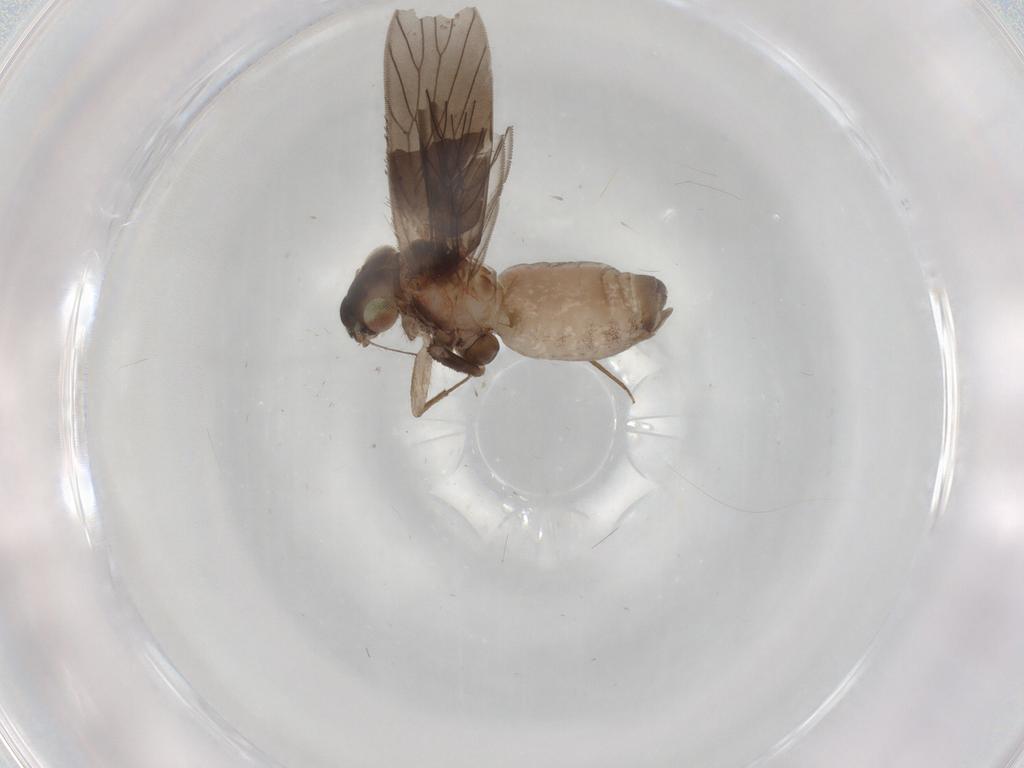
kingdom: Animalia
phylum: Arthropoda
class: Insecta
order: Psocodea
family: Lepidopsocidae
